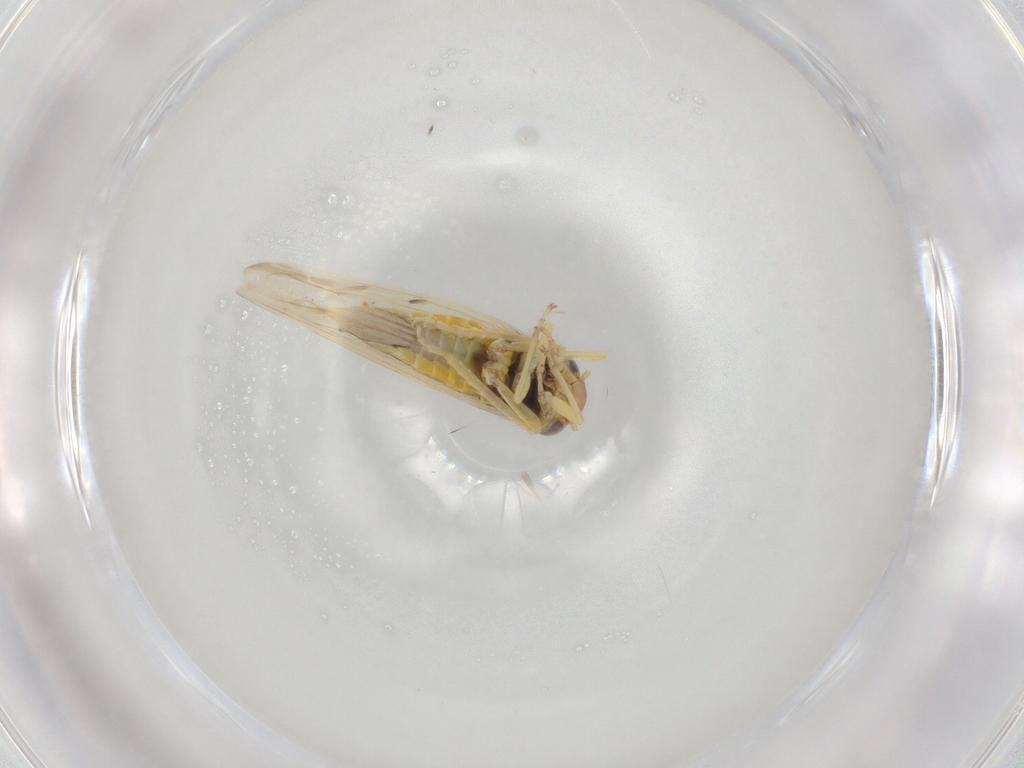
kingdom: Animalia
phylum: Arthropoda
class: Insecta
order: Hemiptera
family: Cicadellidae
